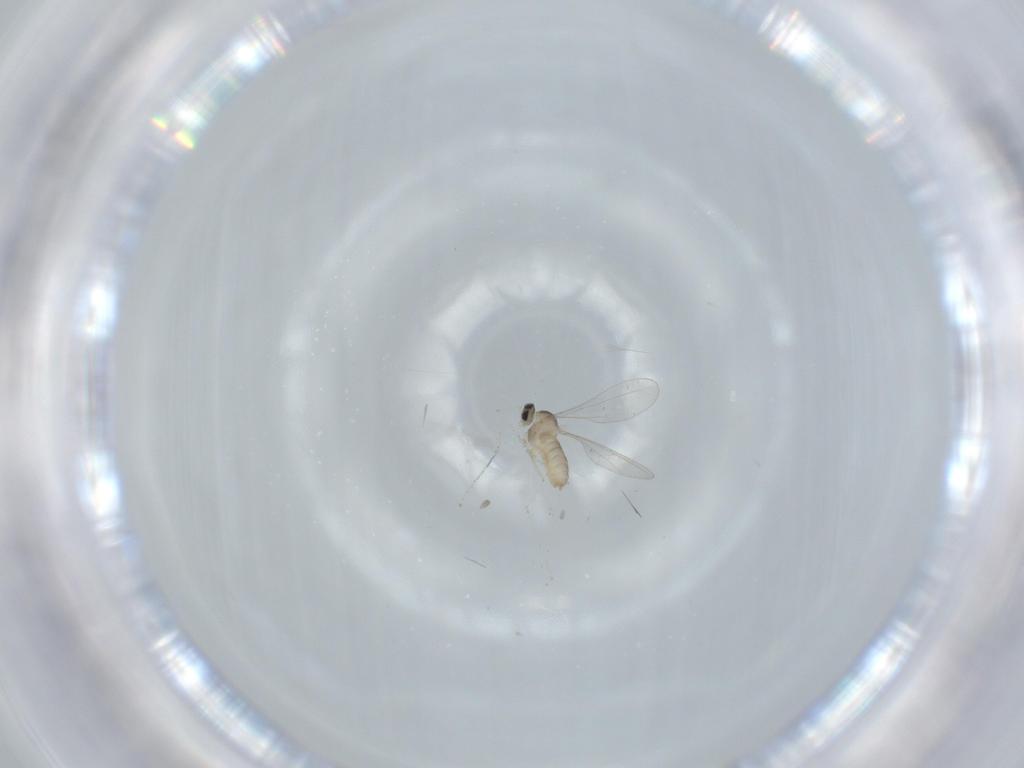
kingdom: Animalia
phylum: Arthropoda
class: Insecta
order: Diptera
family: Cecidomyiidae
